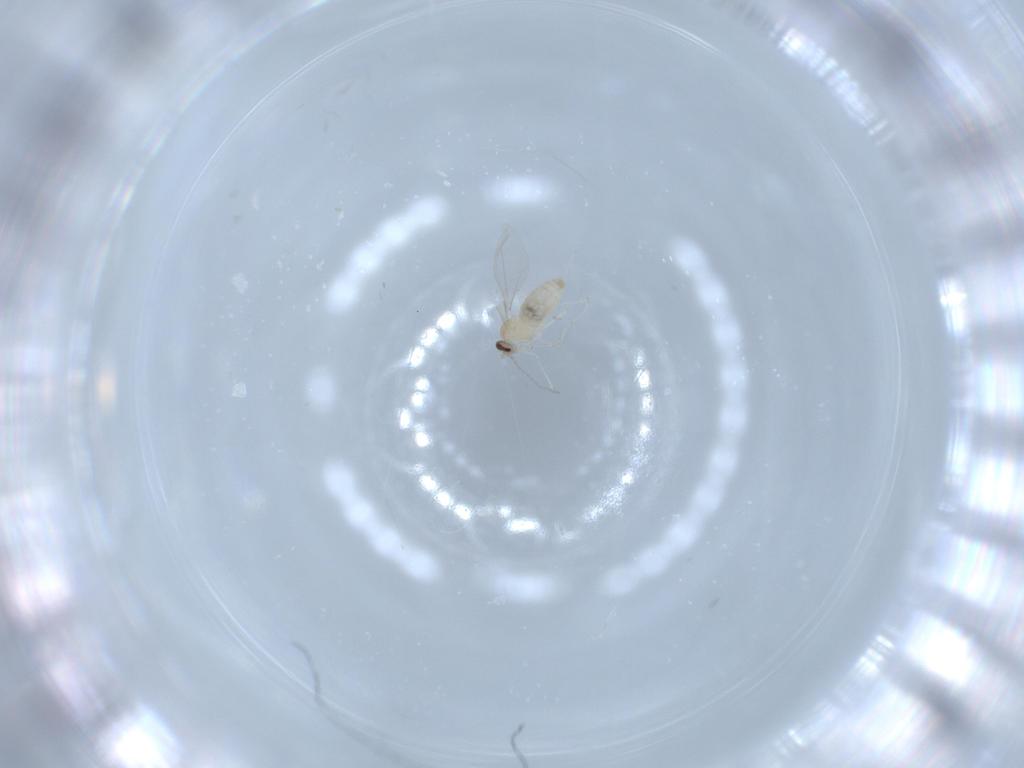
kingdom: Animalia
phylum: Arthropoda
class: Insecta
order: Diptera
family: Cecidomyiidae
